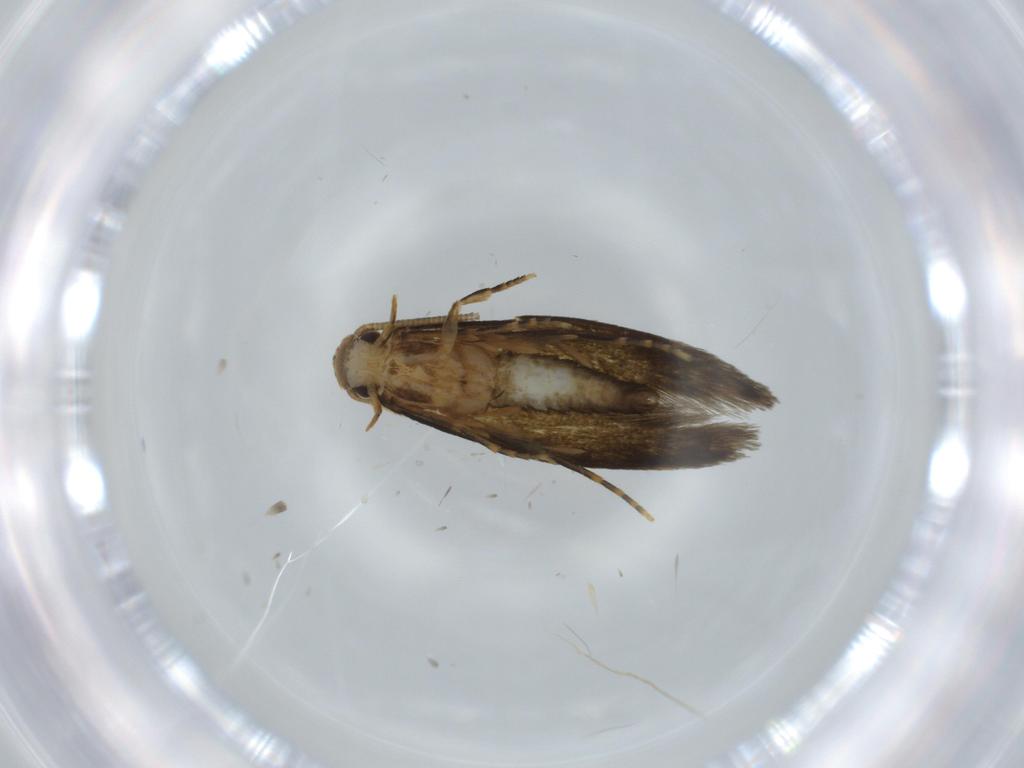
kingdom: Animalia
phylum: Arthropoda
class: Insecta
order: Lepidoptera
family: Tineidae
